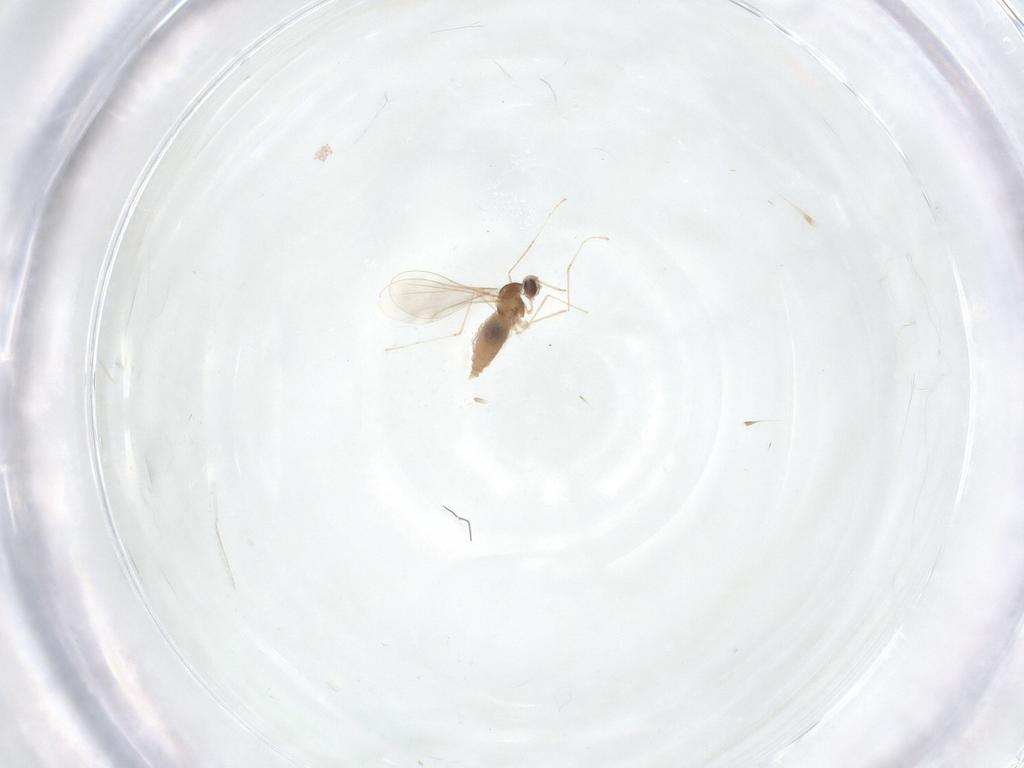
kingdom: Animalia
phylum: Arthropoda
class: Insecta
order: Diptera
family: Cecidomyiidae
